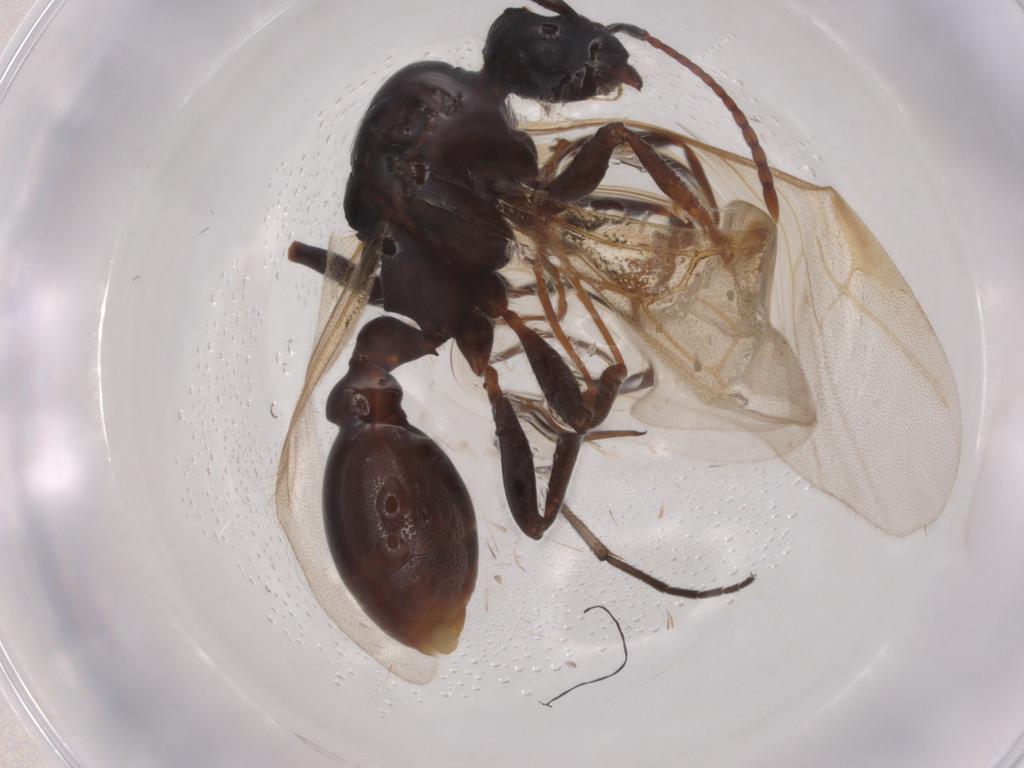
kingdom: Animalia
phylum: Arthropoda
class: Insecta
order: Hymenoptera
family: Formicidae
